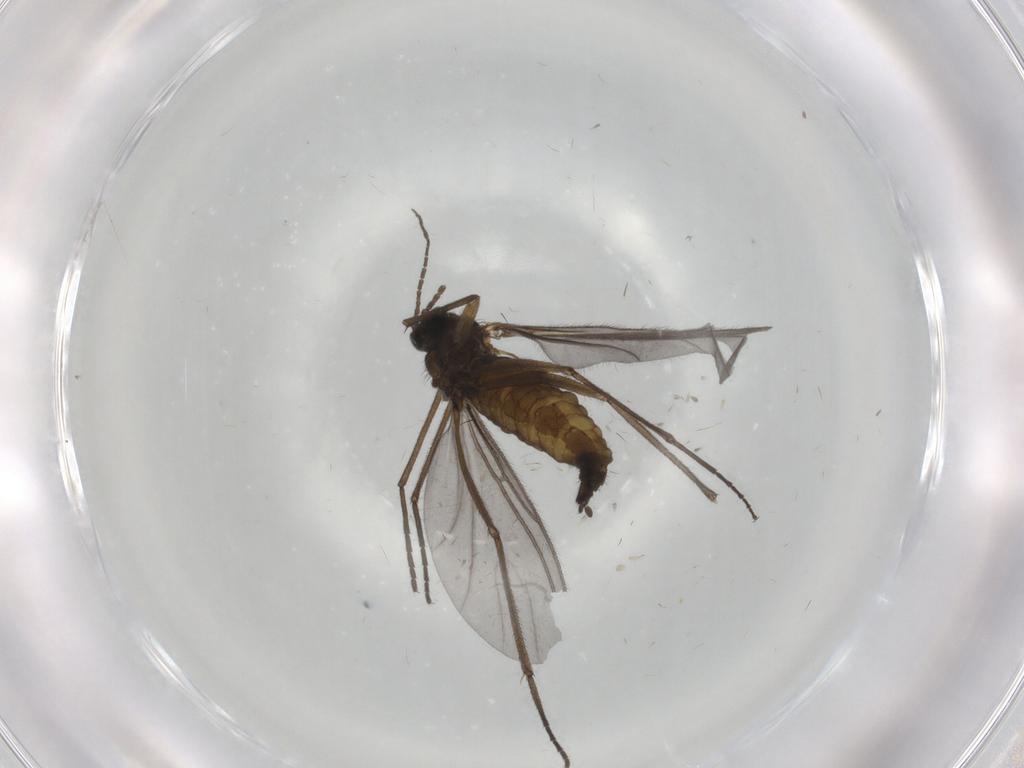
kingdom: Animalia
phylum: Arthropoda
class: Insecta
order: Diptera
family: Sciaridae
